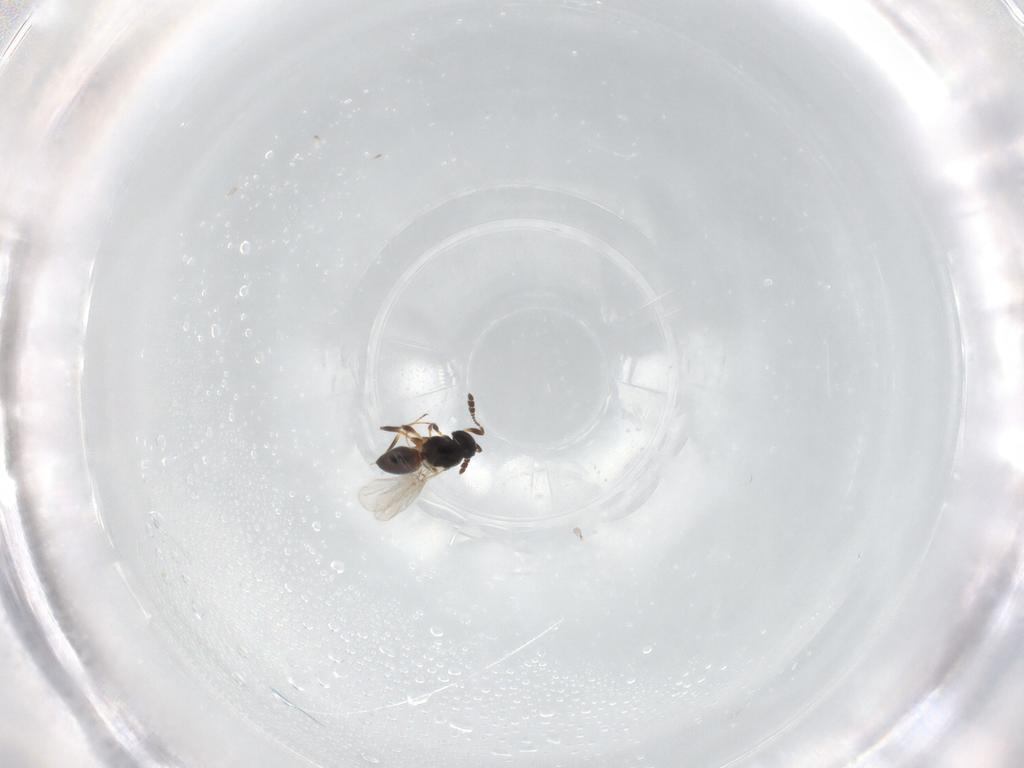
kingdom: Animalia
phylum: Arthropoda
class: Insecta
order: Hymenoptera
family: Platygastridae
